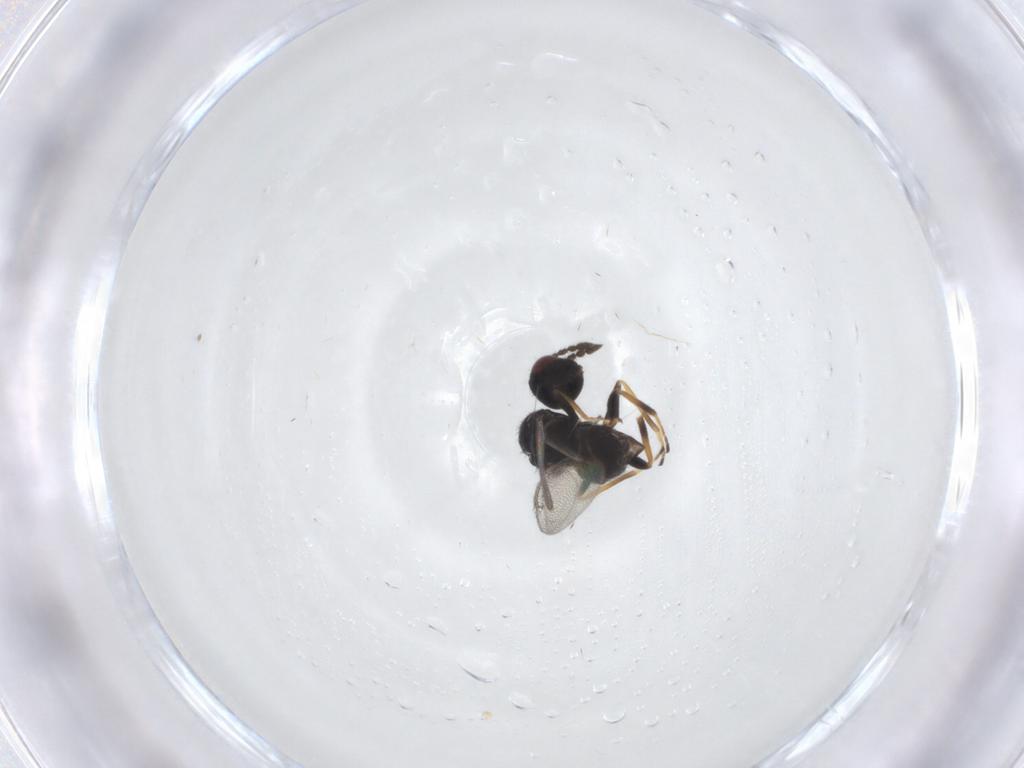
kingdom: Animalia
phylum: Arthropoda
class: Insecta
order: Hymenoptera
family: Eulophidae
